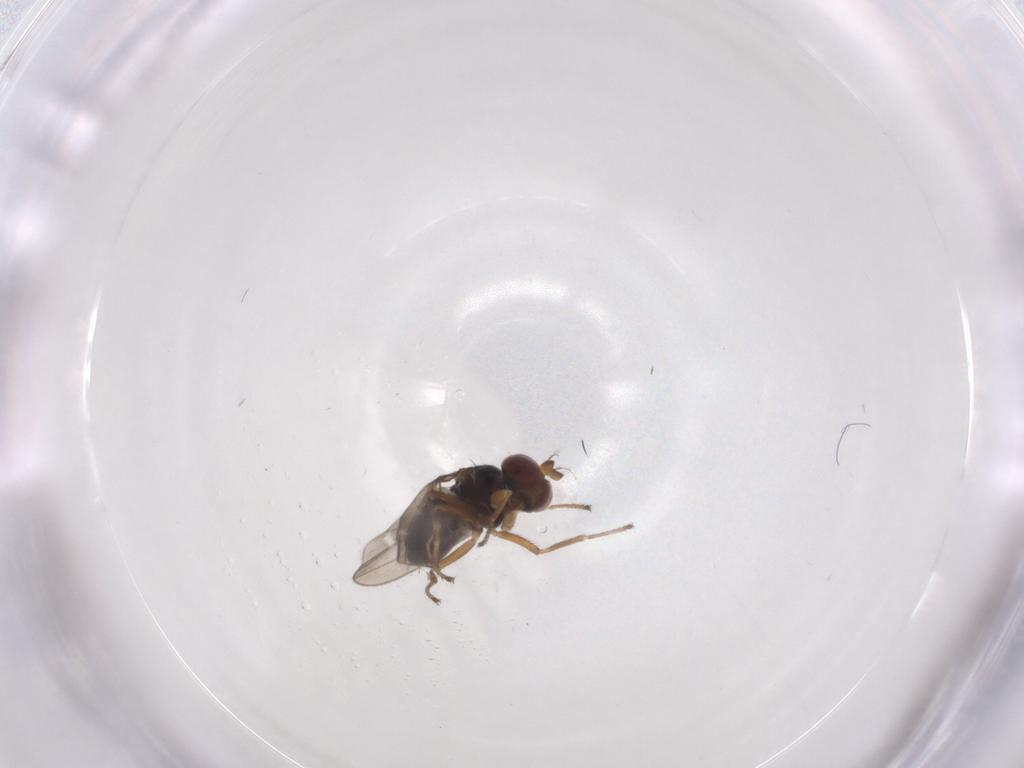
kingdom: Animalia
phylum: Arthropoda
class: Insecta
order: Diptera
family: Ephydridae
